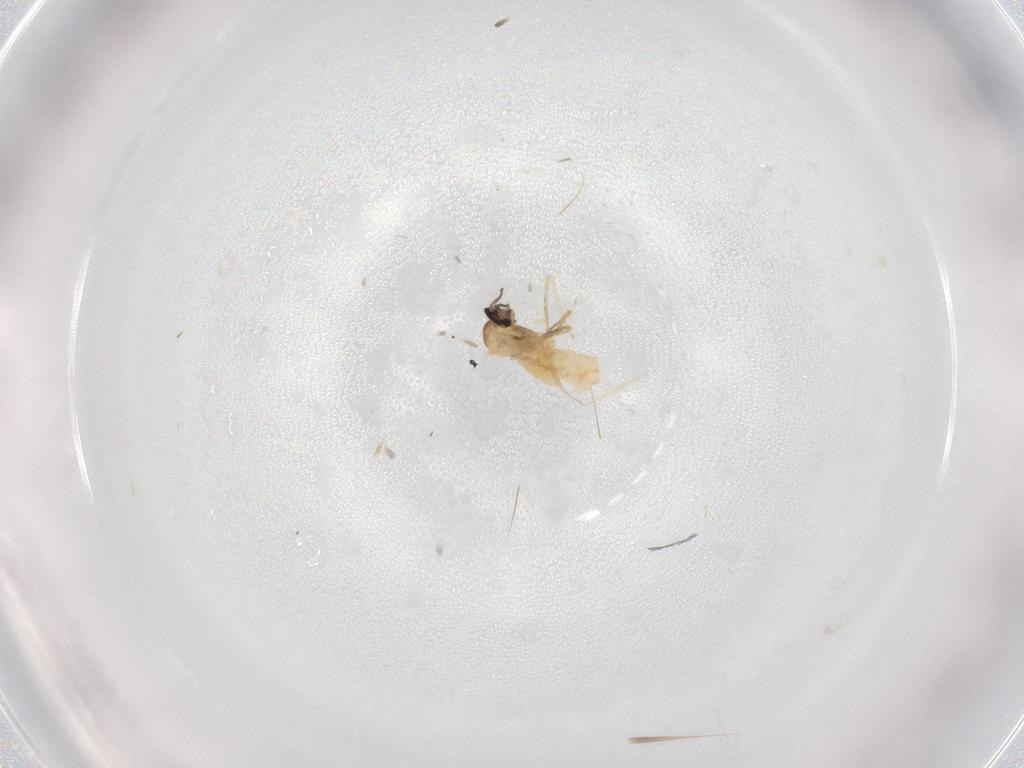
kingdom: Animalia
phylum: Arthropoda
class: Insecta
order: Diptera
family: Cecidomyiidae
